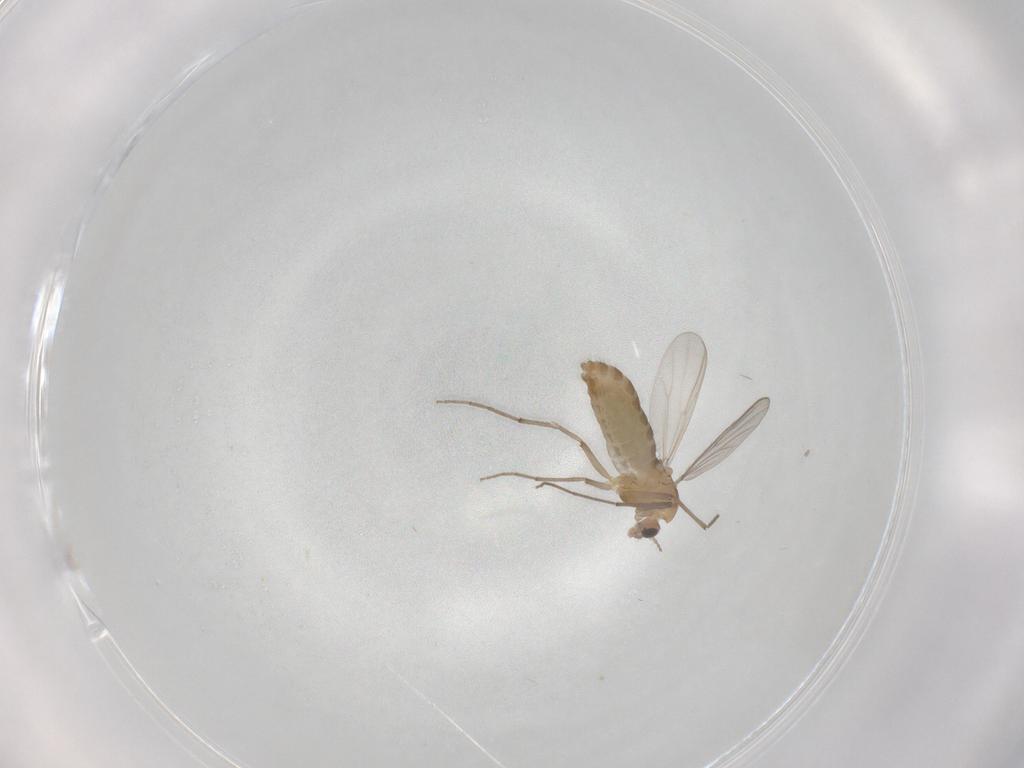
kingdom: Animalia
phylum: Arthropoda
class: Insecta
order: Diptera
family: Chironomidae
